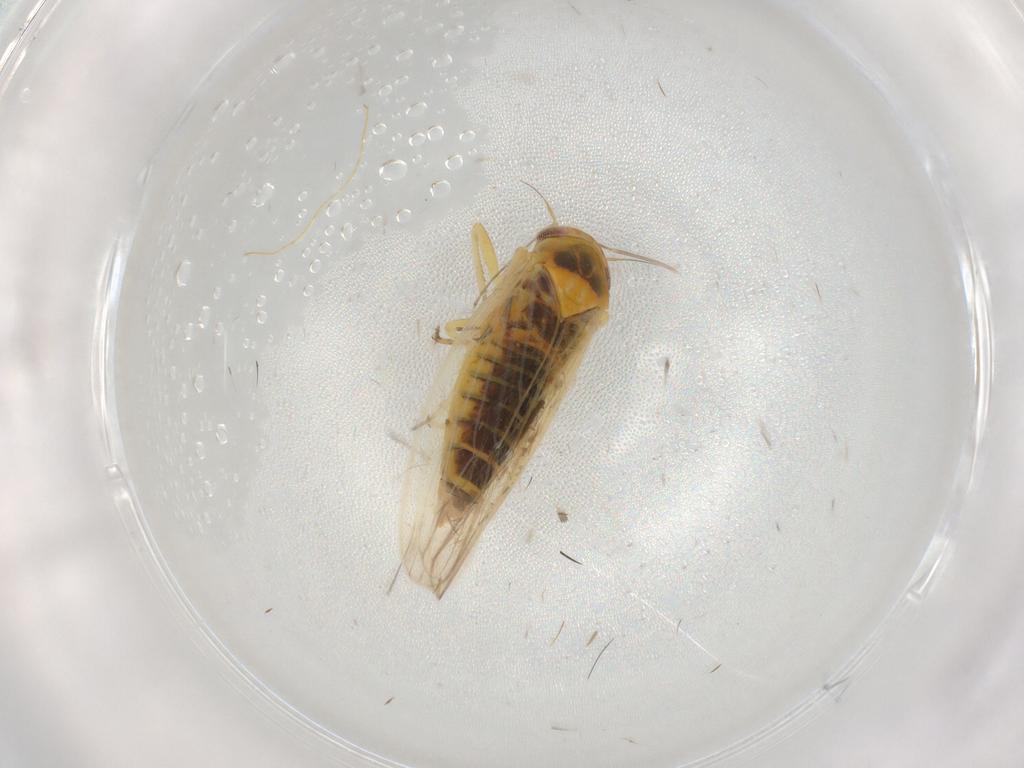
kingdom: Animalia
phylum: Arthropoda
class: Insecta
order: Hemiptera
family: Cicadellidae
